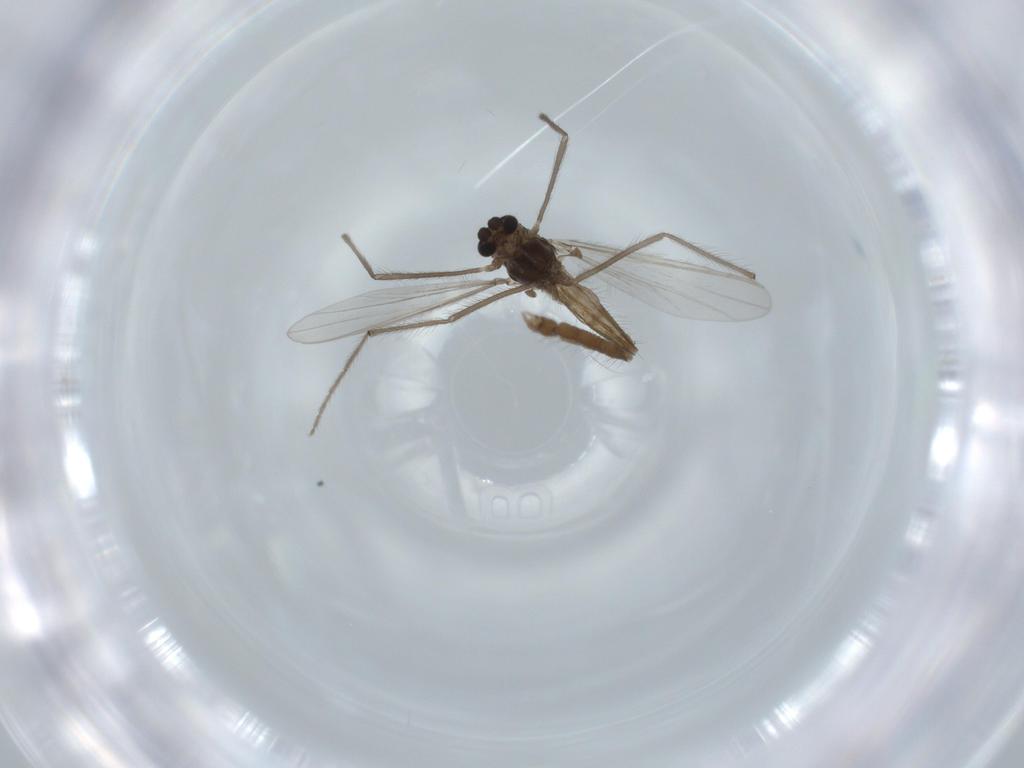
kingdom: Animalia
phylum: Arthropoda
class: Insecta
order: Diptera
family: Chironomidae
